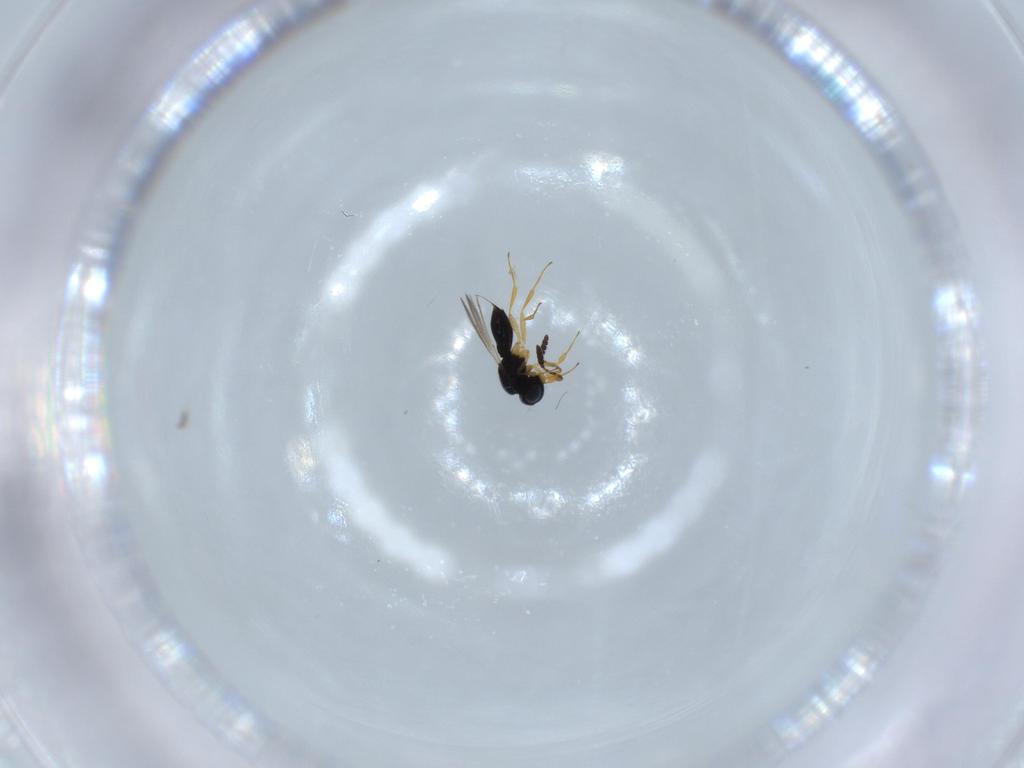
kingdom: Animalia
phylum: Arthropoda
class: Insecta
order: Hymenoptera
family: Scelionidae
